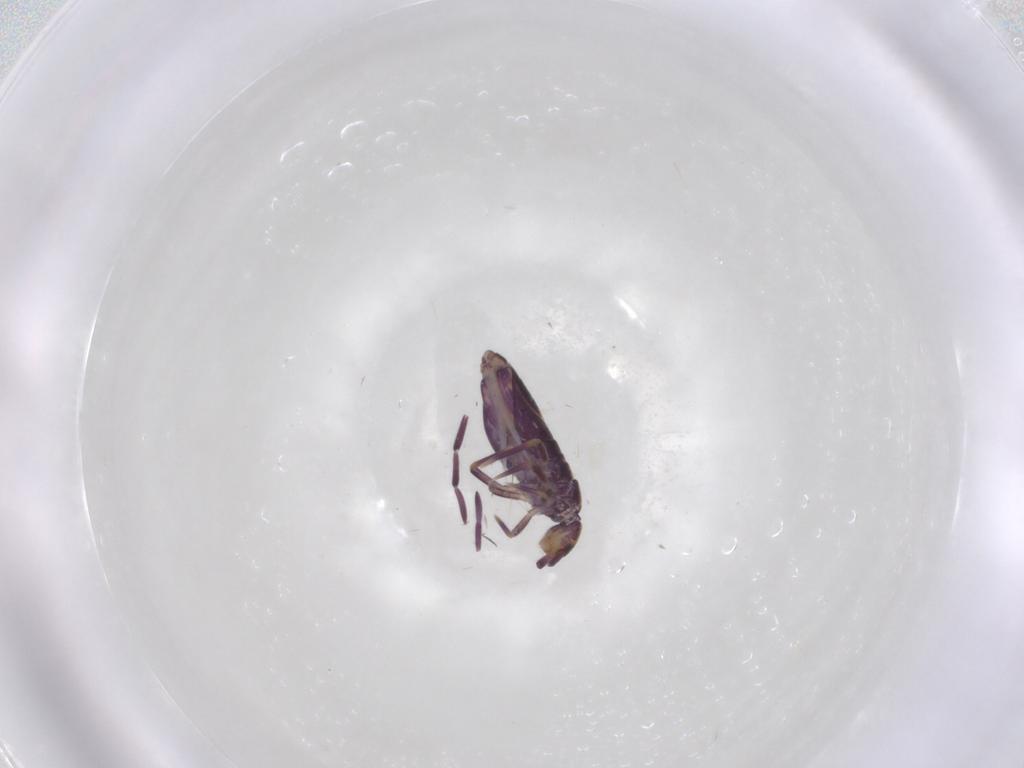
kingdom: Animalia
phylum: Arthropoda
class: Collembola
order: Entomobryomorpha
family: Entomobryidae
